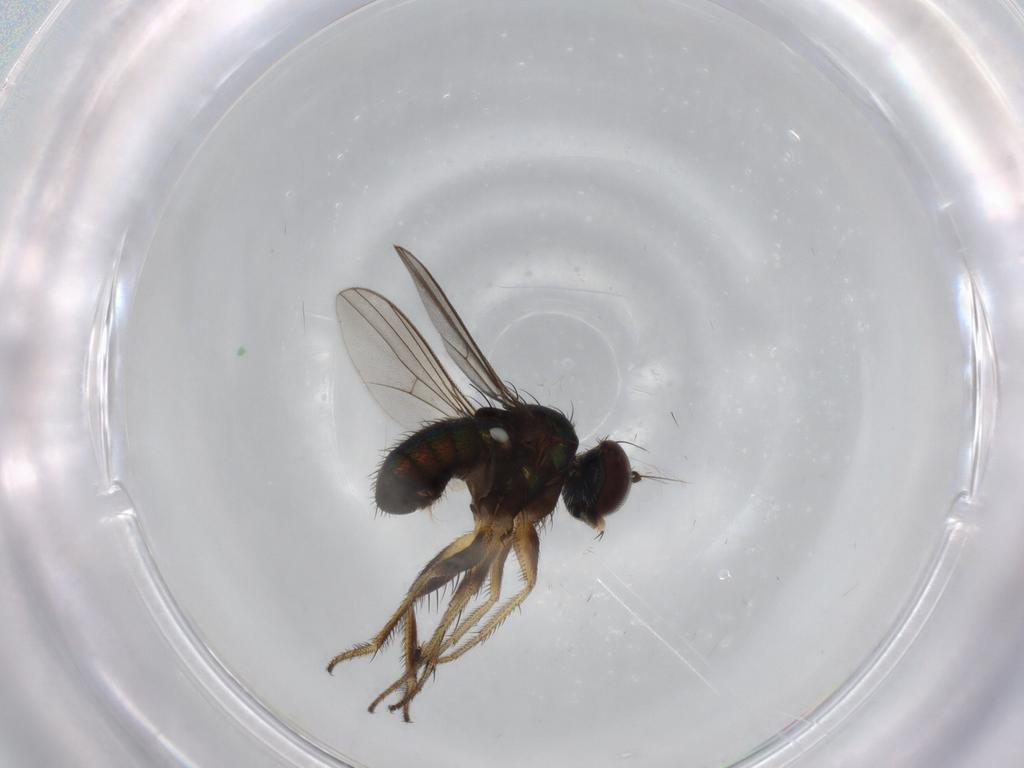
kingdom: Animalia
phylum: Arthropoda
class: Insecta
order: Diptera
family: Dolichopodidae
